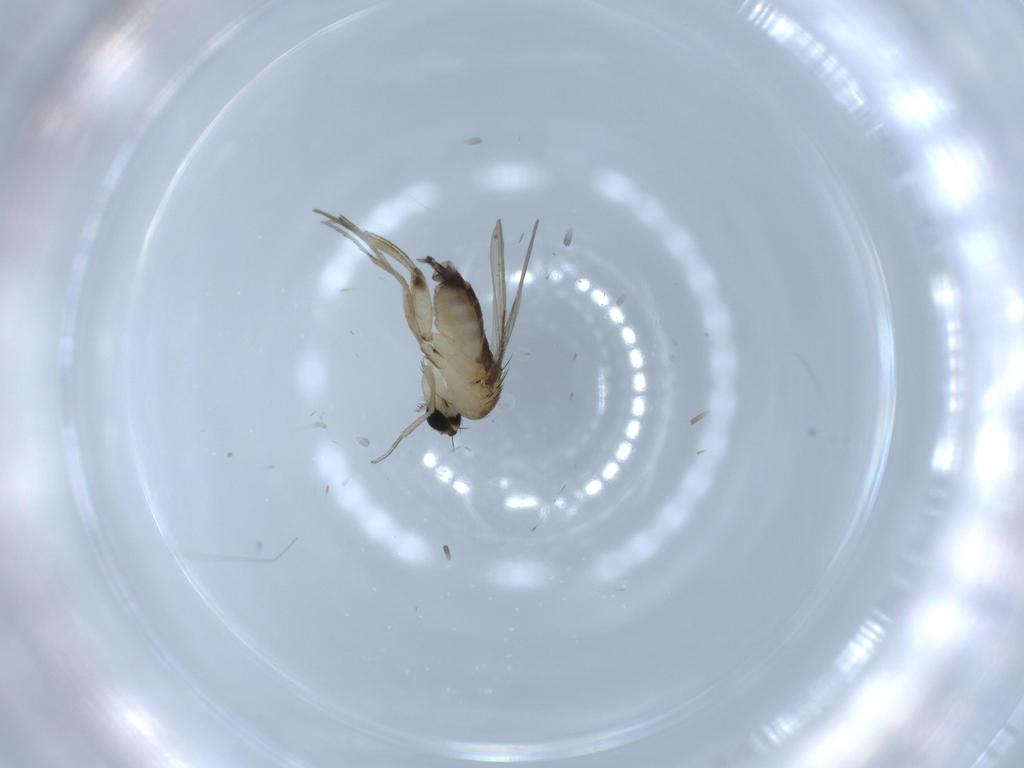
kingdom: Animalia
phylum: Arthropoda
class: Insecta
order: Diptera
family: Phoridae
